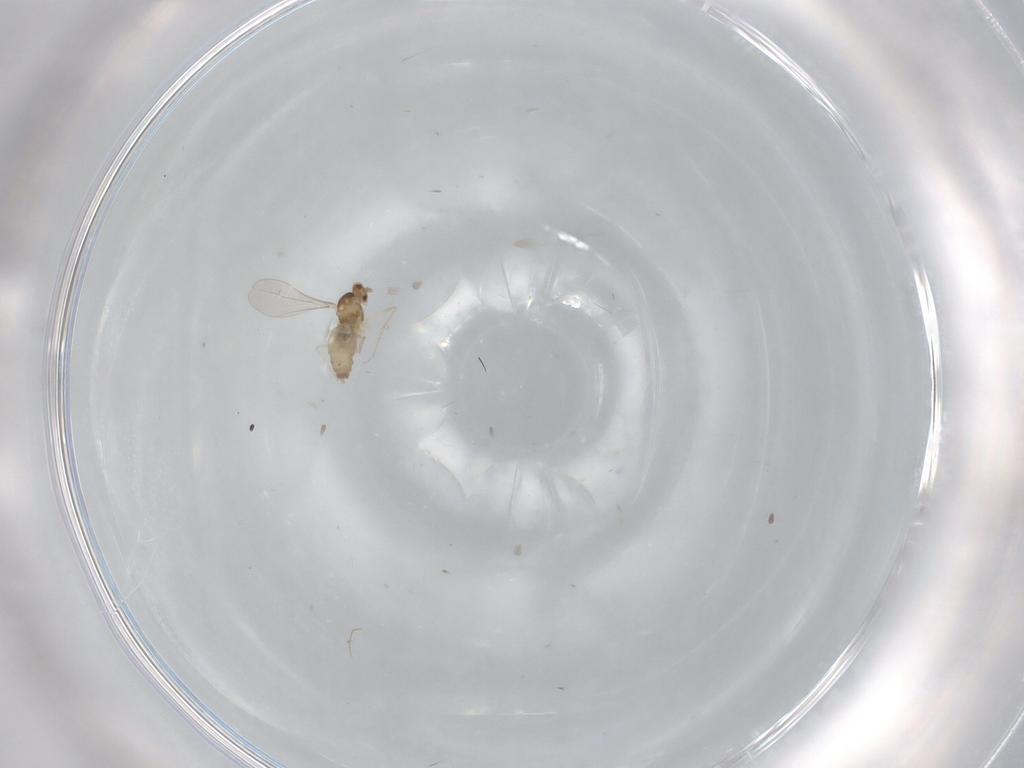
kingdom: Animalia
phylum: Arthropoda
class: Insecta
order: Diptera
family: Cecidomyiidae
